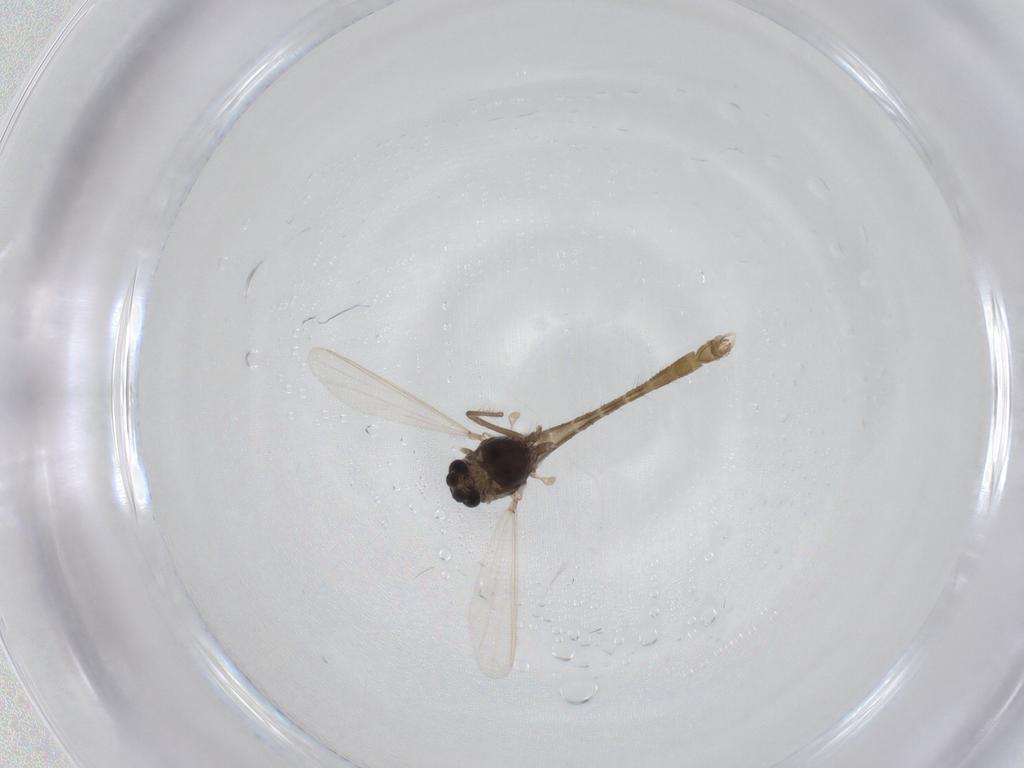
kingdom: Animalia
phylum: Arthropoda
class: Insecta
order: Diptera
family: Chironomidae
